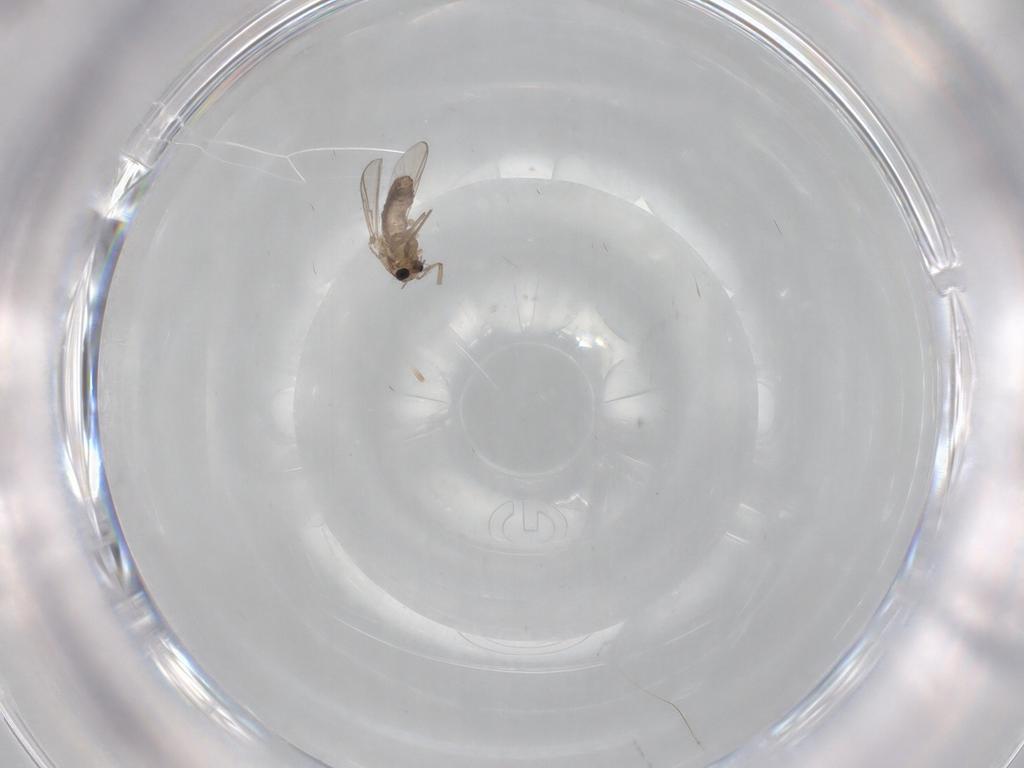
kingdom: Animalia
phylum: Arthropoda
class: Insecta
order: Diptera
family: Chironomidae
